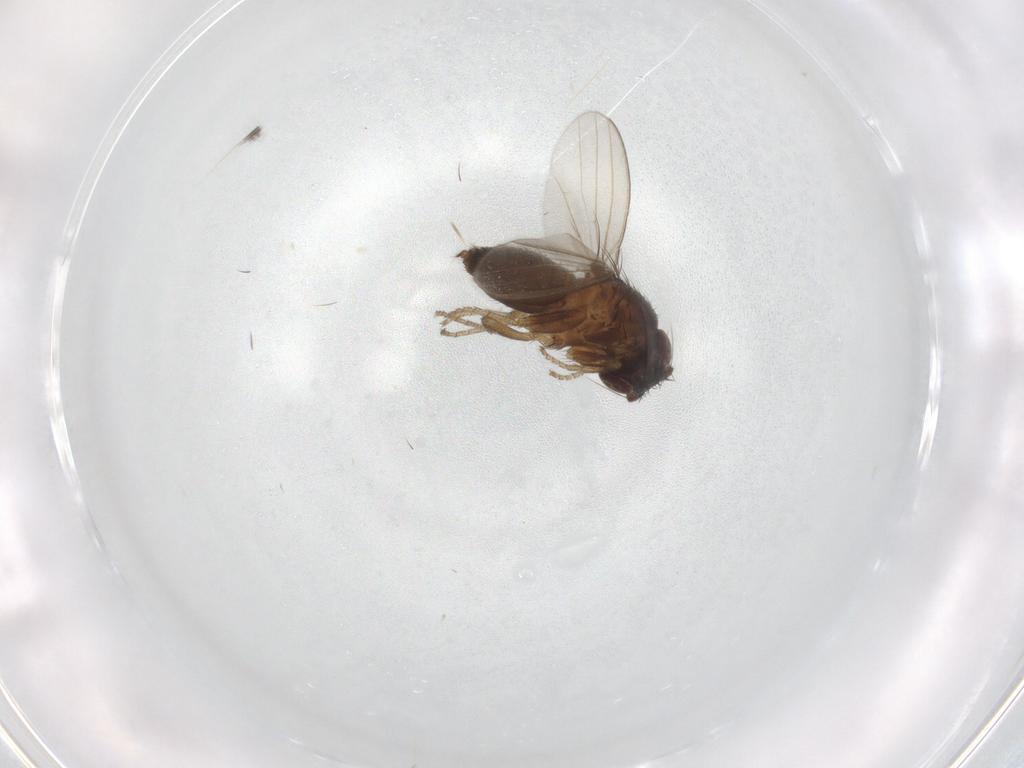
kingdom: Animalia
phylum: Arthropoda
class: Insecta
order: Diptera
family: Milichiidae
